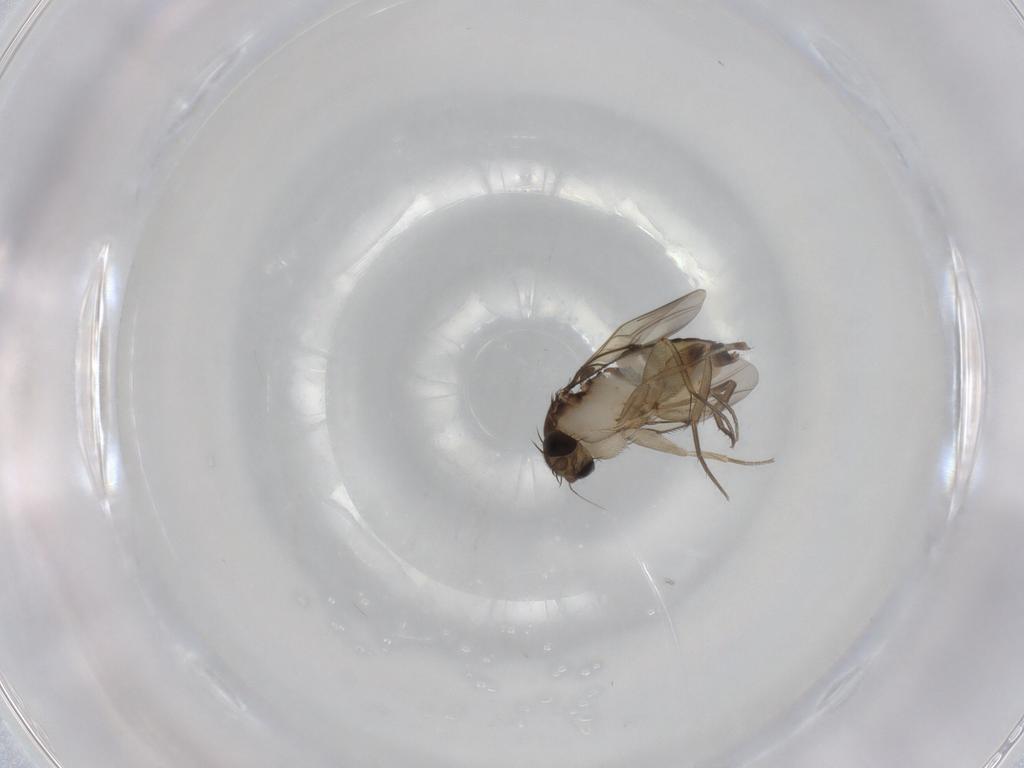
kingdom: Animalia
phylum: Arthropoda
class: Insecta
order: Diptera
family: Phoridae
